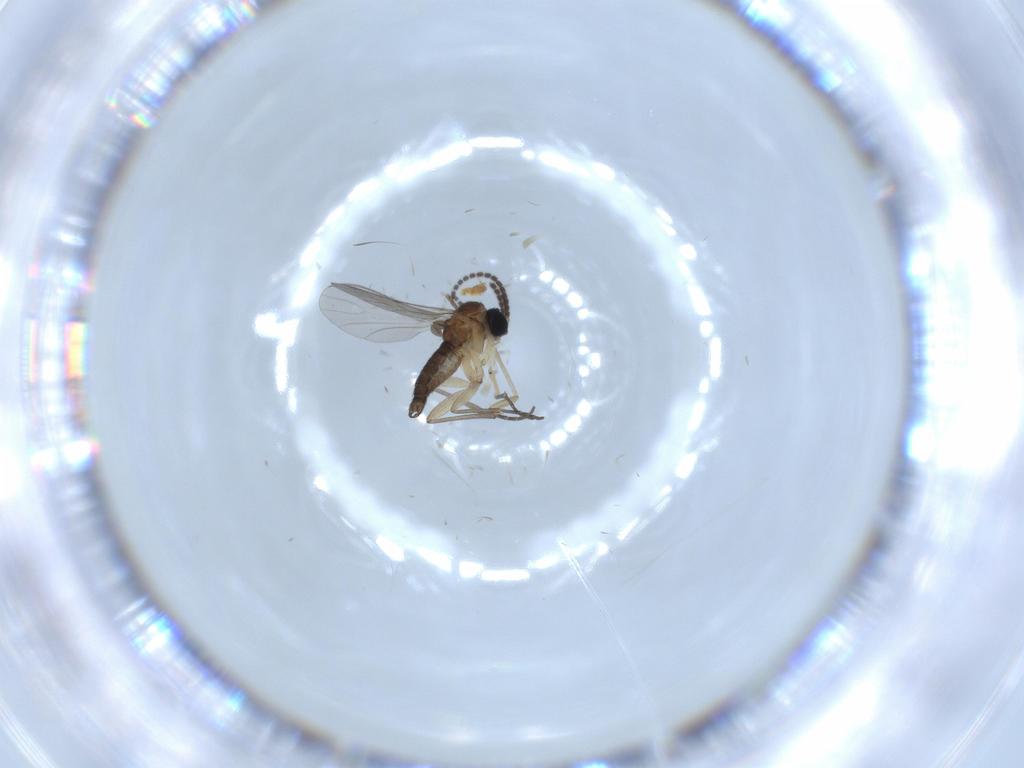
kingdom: Animalia
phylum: Arthropoda
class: Insecta
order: Diptera
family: Sciaridae
